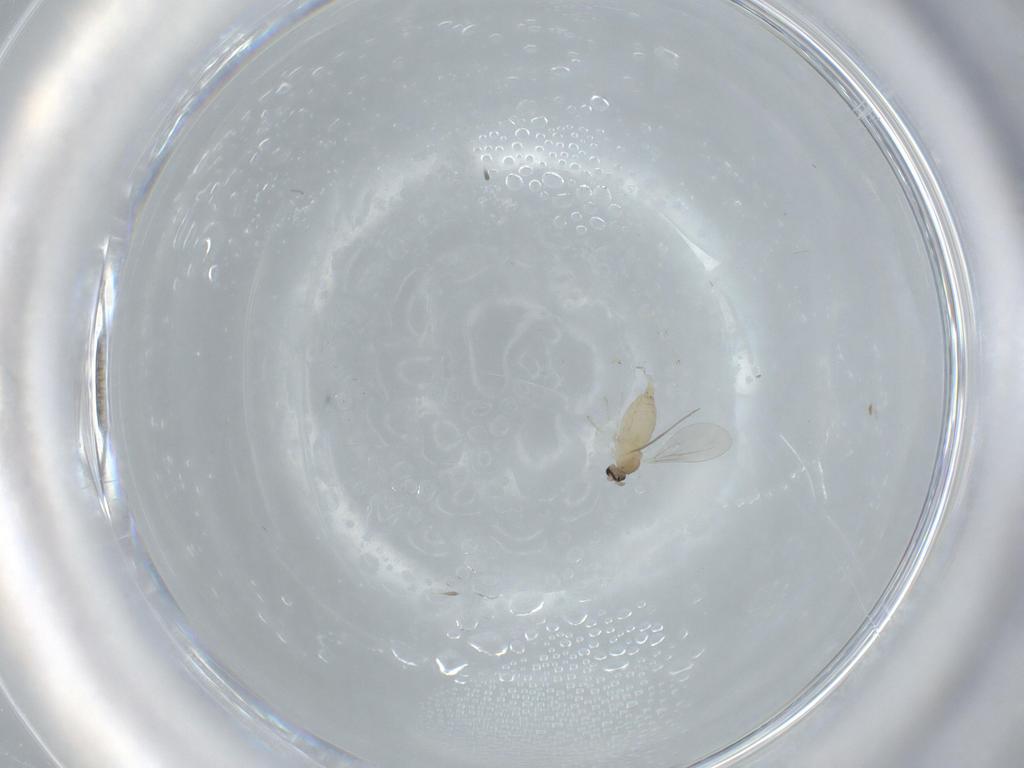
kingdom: Animalia
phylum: Arthropoda
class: Insecta
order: Diptera
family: Cecidomyiidae
